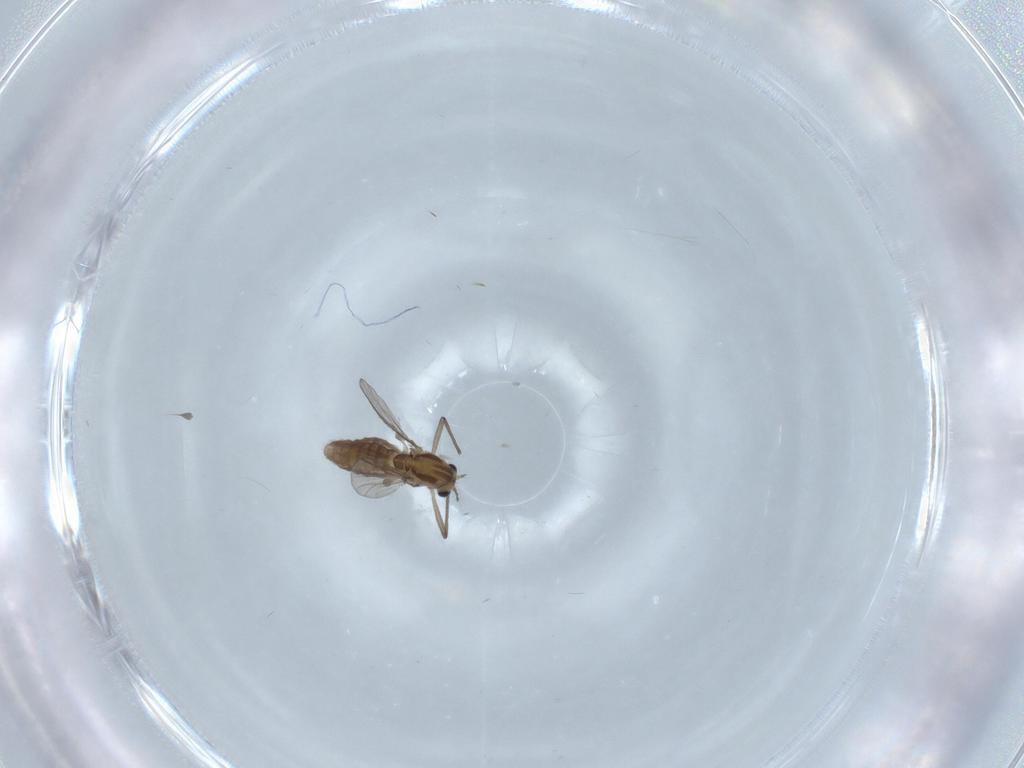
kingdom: Animalia
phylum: Arthropoda
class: Insecta
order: Diptera
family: Chironomidae
